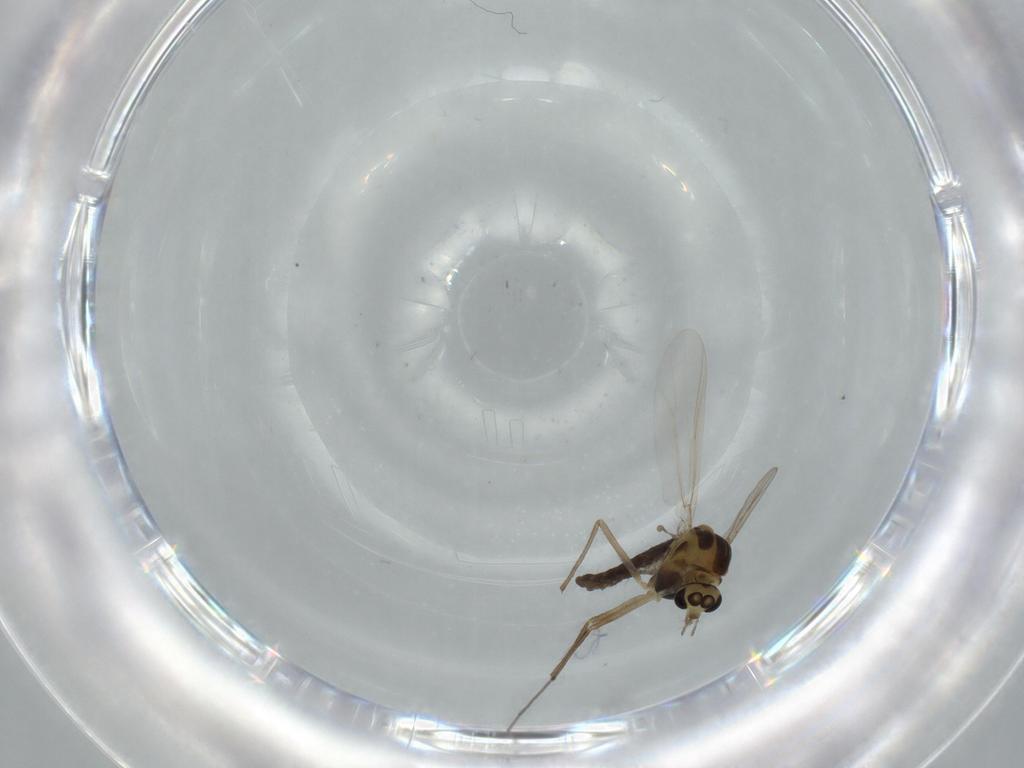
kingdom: Animalia
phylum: Arthropoda
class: Insecta
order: Diptera
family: Chironomidae
